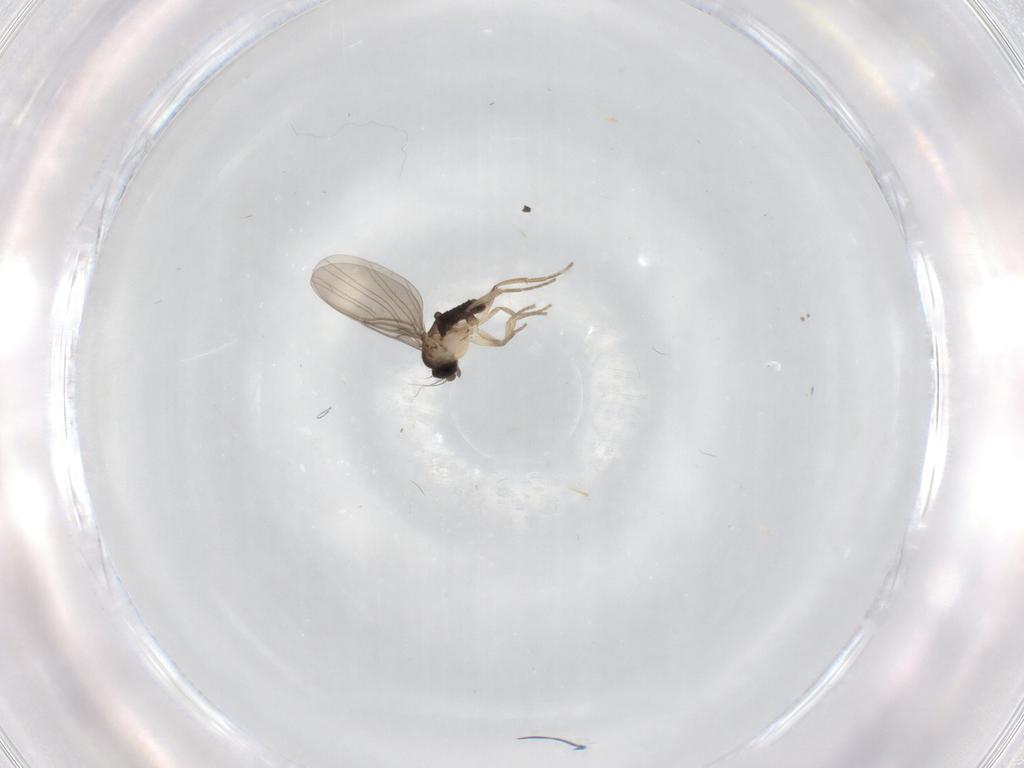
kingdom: Animalia
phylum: Arthropoda
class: Insecta
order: Diptera
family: Phoridae
